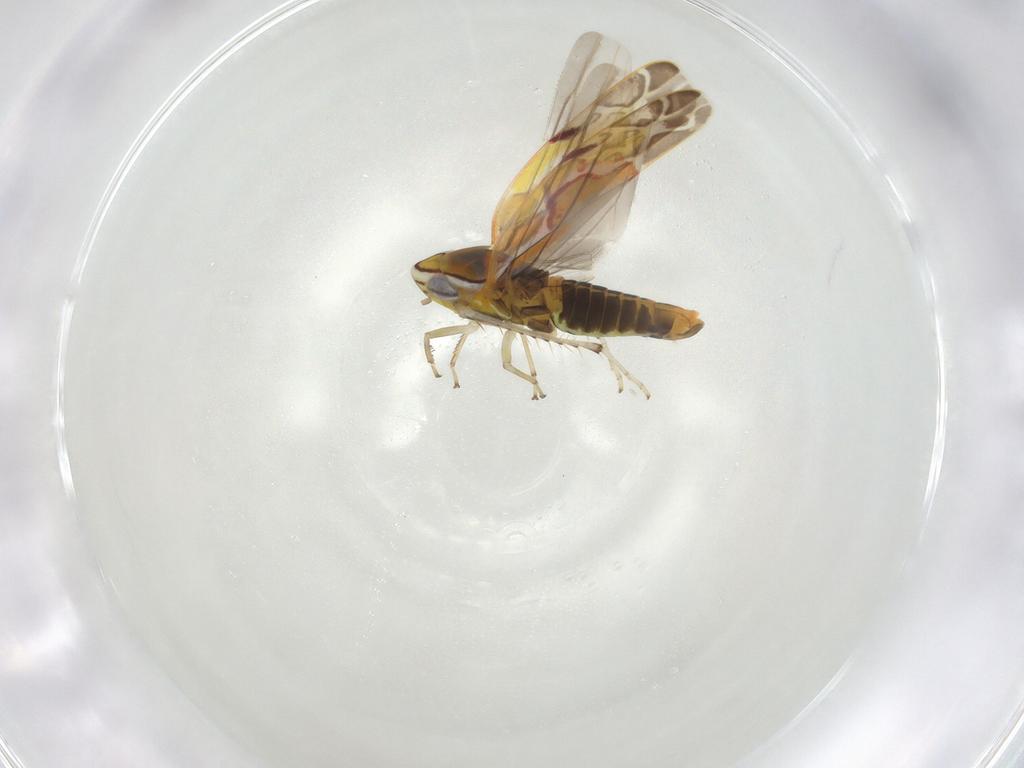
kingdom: Animalia
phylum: Arthropoda
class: Insecta
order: Hemiptera
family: Cicadellidae
